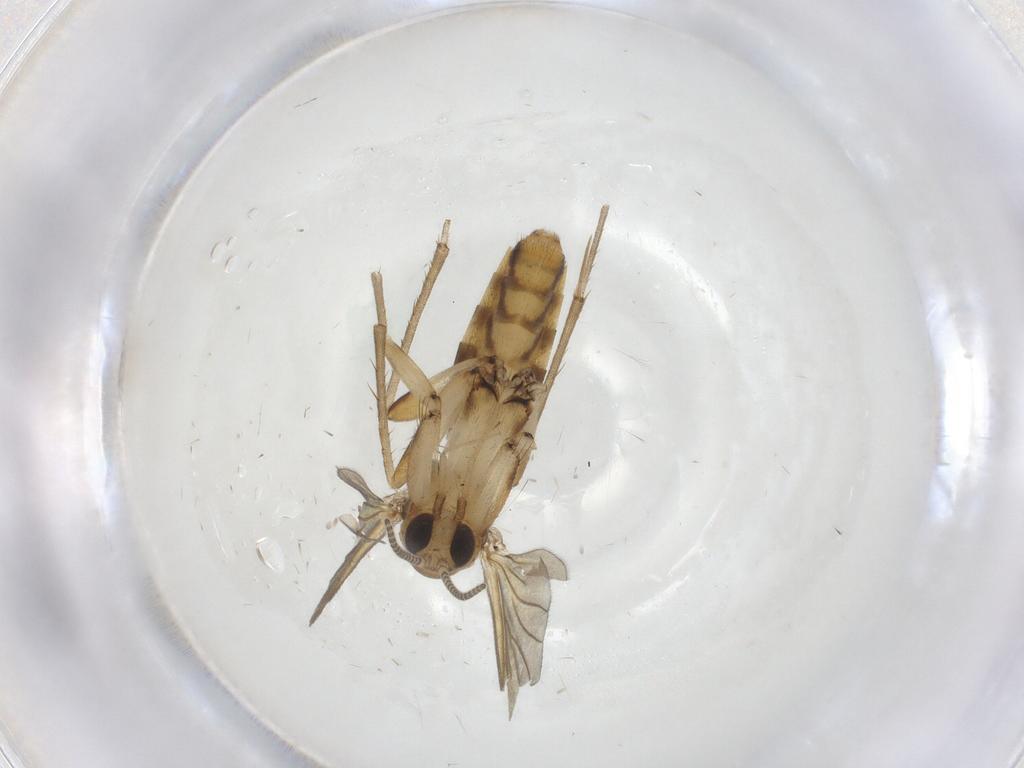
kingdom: Animalia
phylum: Arthropoda
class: Insecta
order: Diptera
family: Mycetophilidae
